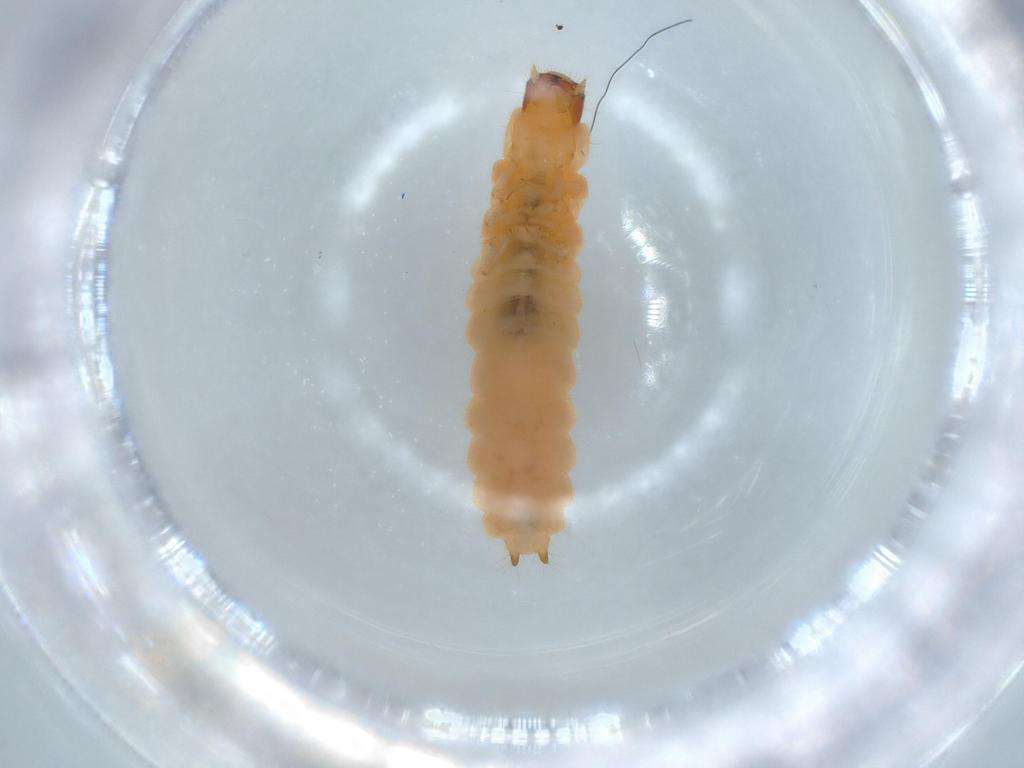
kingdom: Animalia
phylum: Arthropoda
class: Insecta
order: Coleoptera
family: Melyridae
